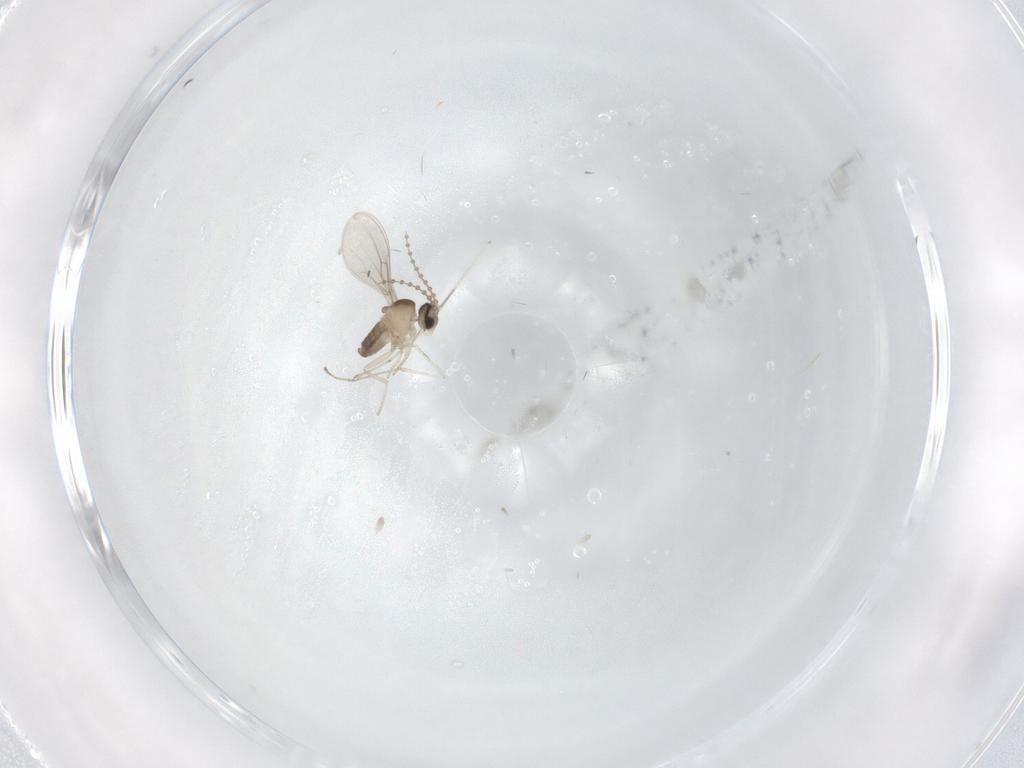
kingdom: Animalia
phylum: Arthropoda
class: Insecta
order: Diptera
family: Cecidomyiidae
